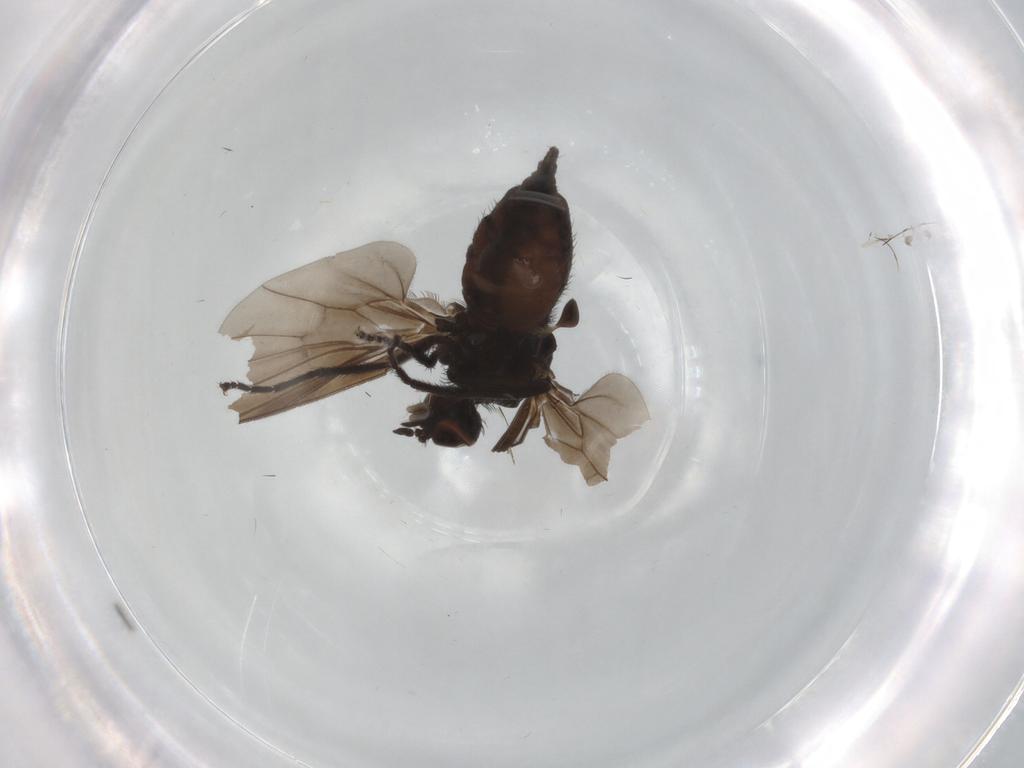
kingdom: Animalia
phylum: Arthropoda
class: Insecta
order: Diptera
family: Empididae
